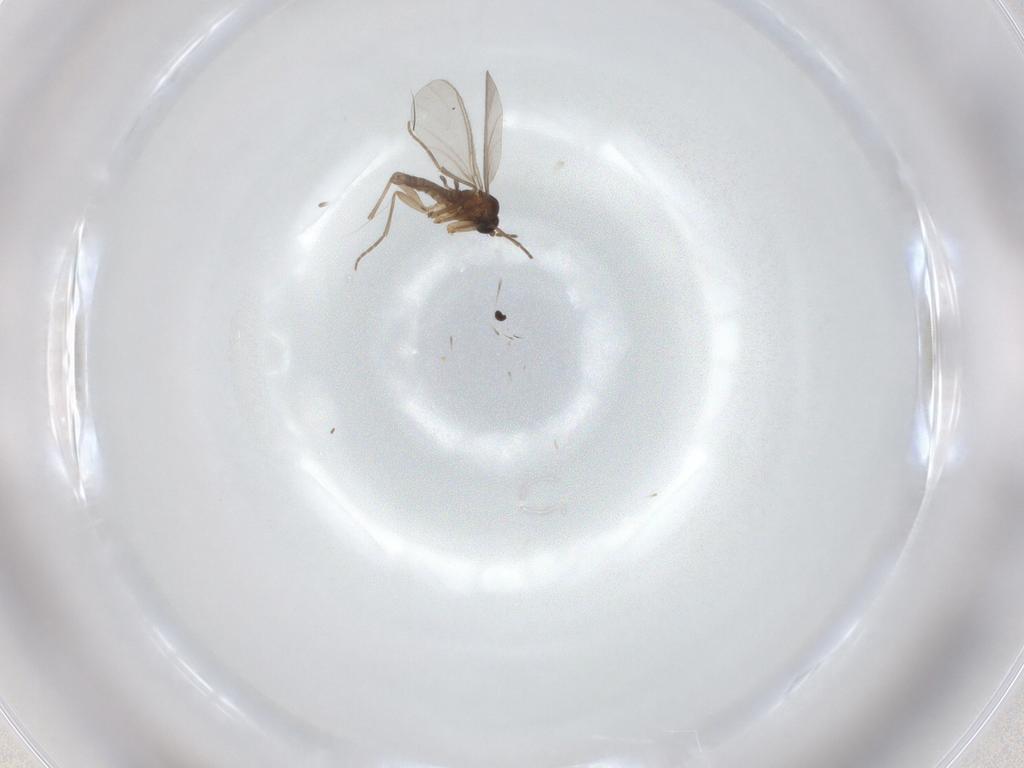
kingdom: Animalia
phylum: Arthropoda
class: Insecta
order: Diptera
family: Sciaridae
